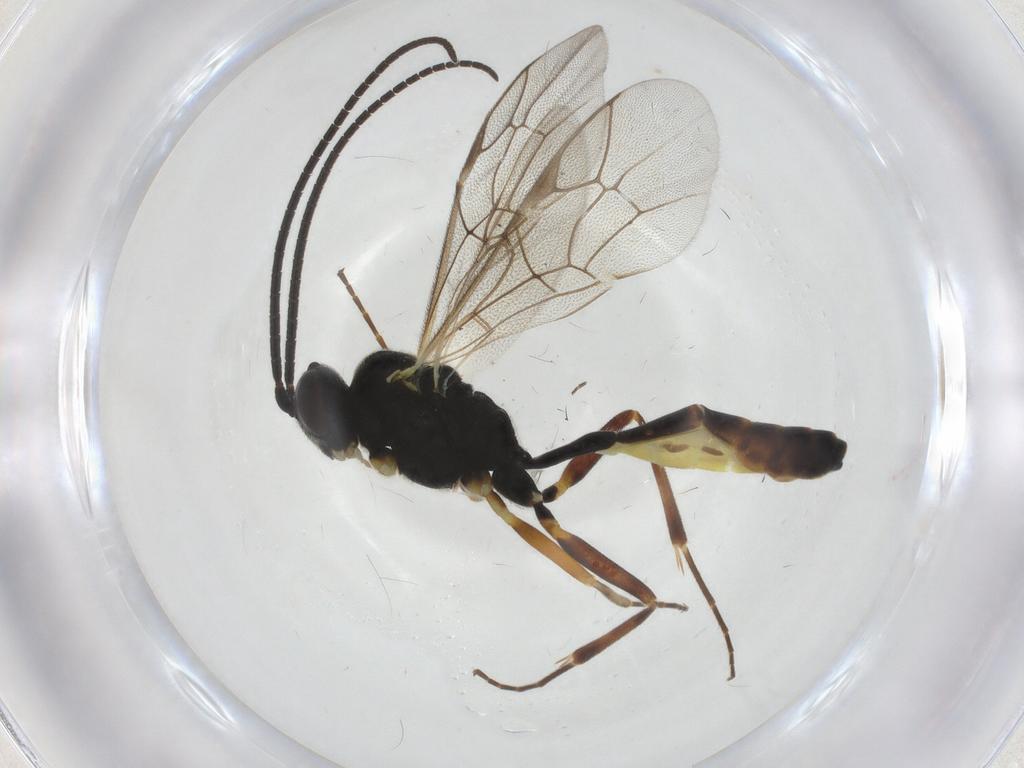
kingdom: Animalia
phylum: Arthropoda
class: Insecta
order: Hymenoptera
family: Ichneumonidae
